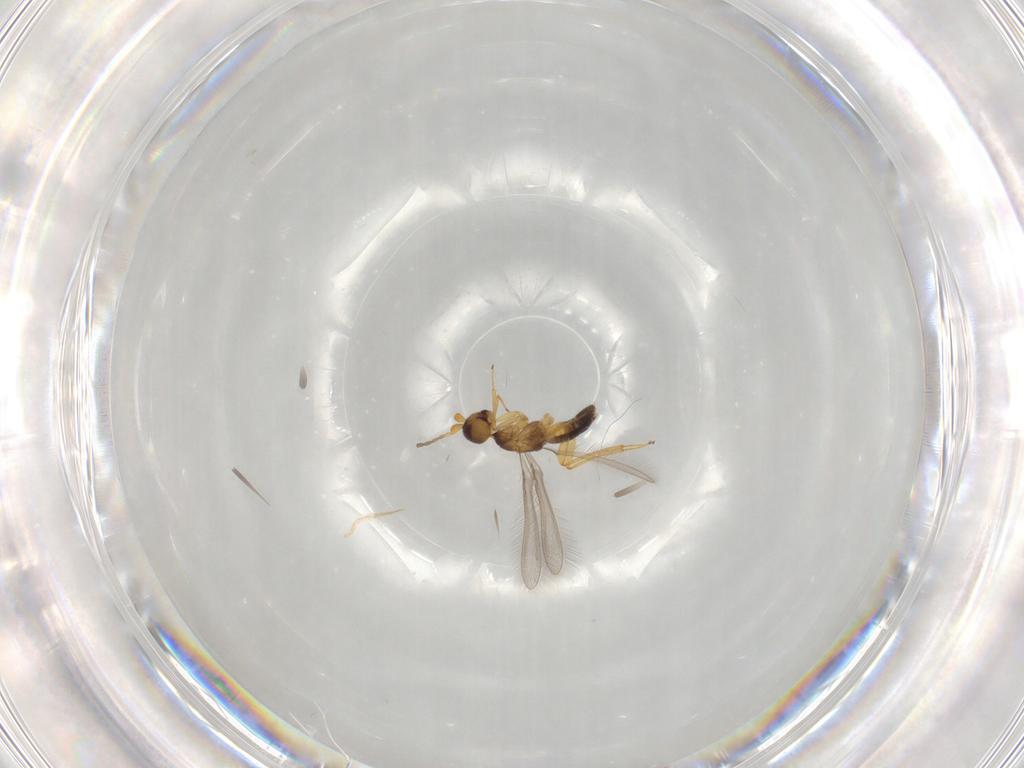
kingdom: Animalia
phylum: Arthropoda
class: Insecta
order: Hymenoptera
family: Mymaridae
